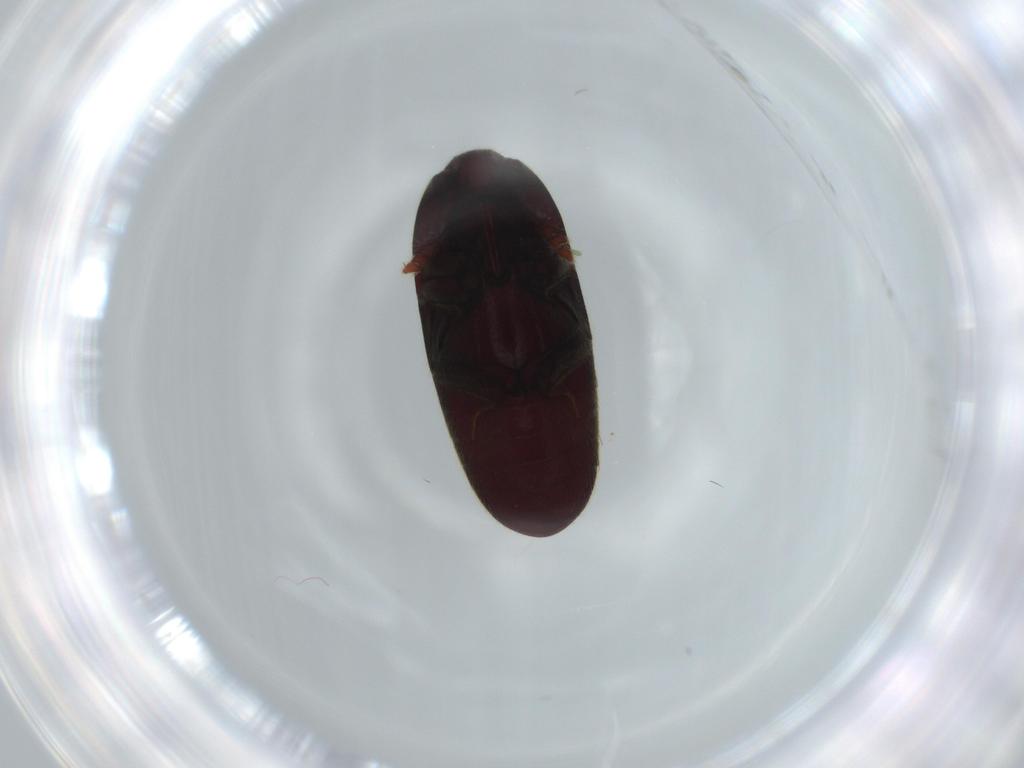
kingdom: Animalia
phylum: Arthropoda
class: Insecta
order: Coleoptera
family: Throscidae
